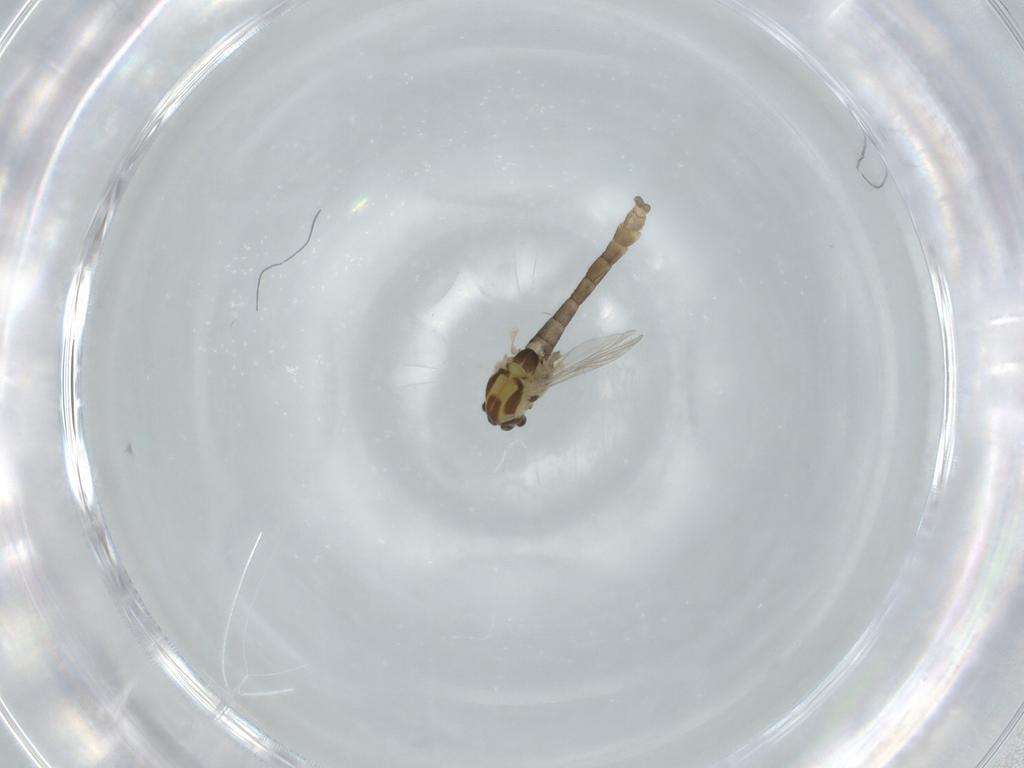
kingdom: Animalia
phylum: Arthropoda
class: Insecta
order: Diptera
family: Chironomidae
